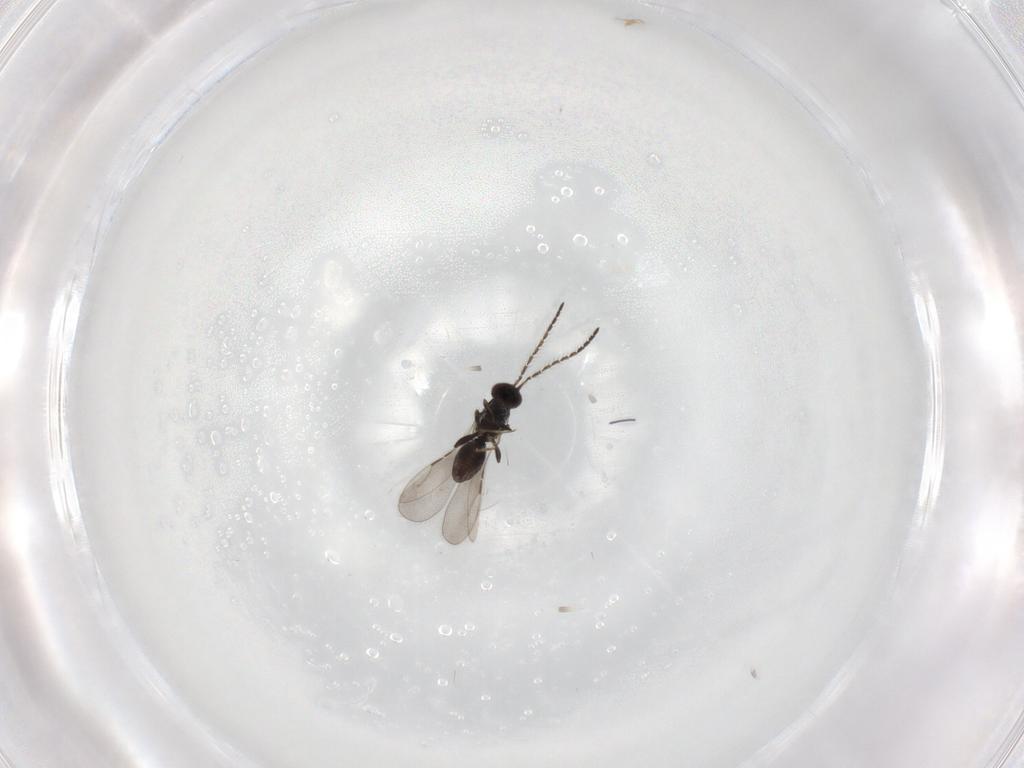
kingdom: Animalia
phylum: Arthropoda
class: Insecta
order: Hymenoptera
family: Ceraphronidae
